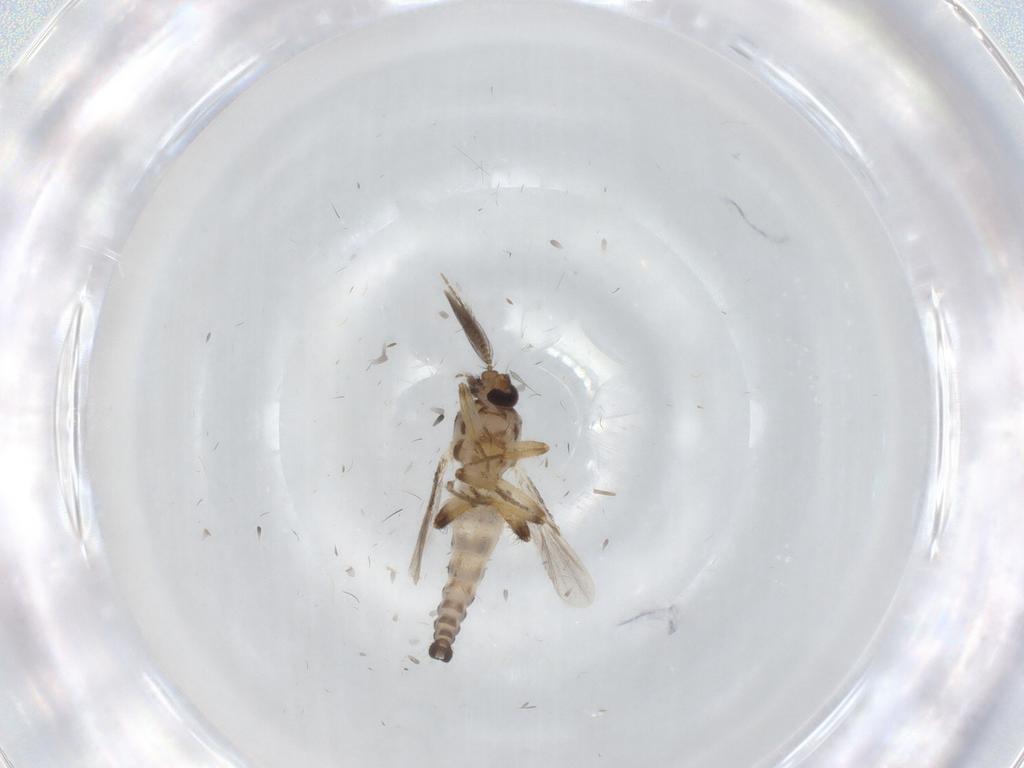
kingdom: Animalia
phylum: Arthropoda
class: Insecta
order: Diptera
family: Ceratopogonidae
